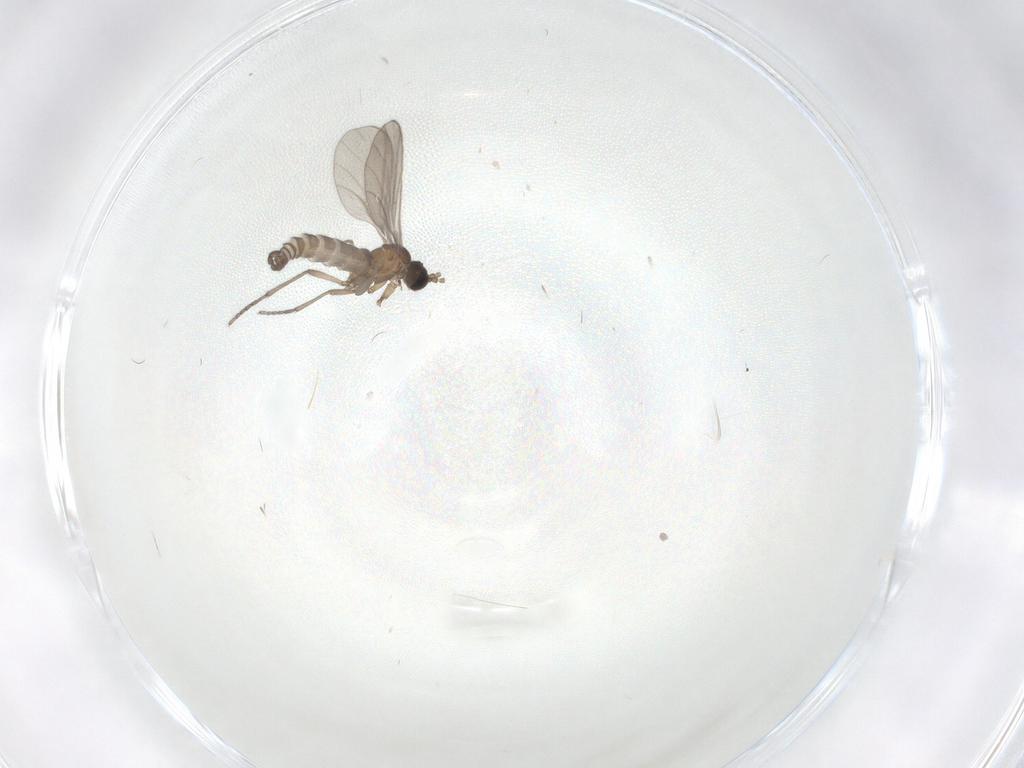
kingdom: Animalia
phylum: Arthropoda
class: Insecta
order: Diptera
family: Sciaridae
